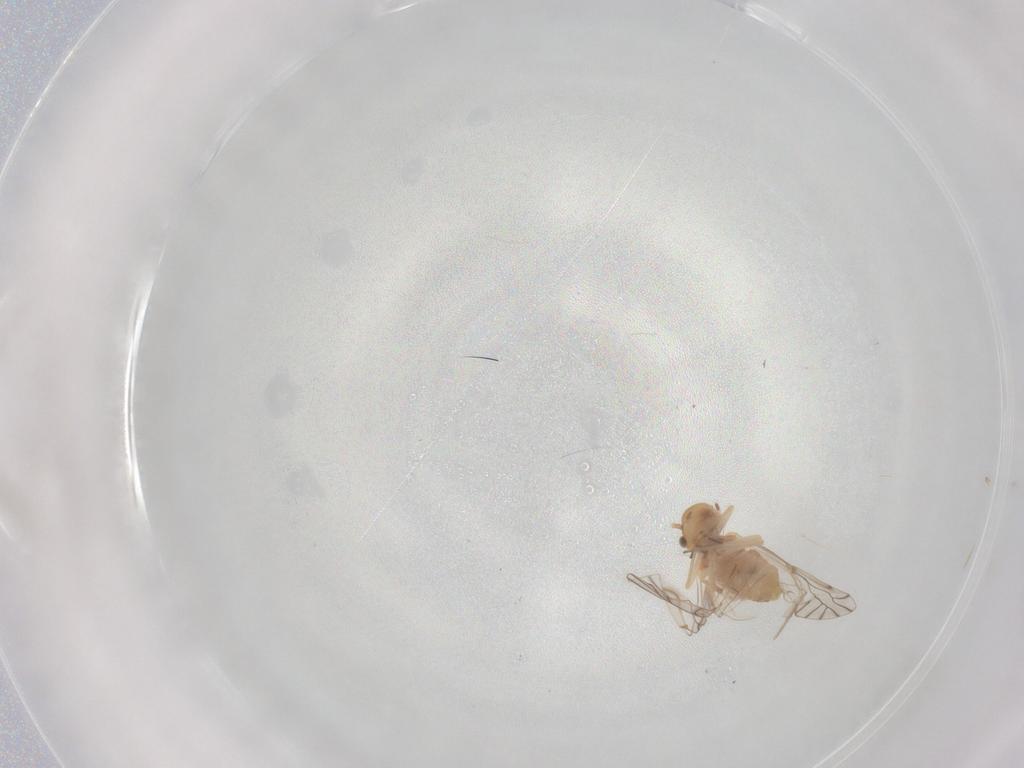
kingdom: Animalia
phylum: Arthropoda
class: Insecta
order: Psocodea
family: Lachesillidae
